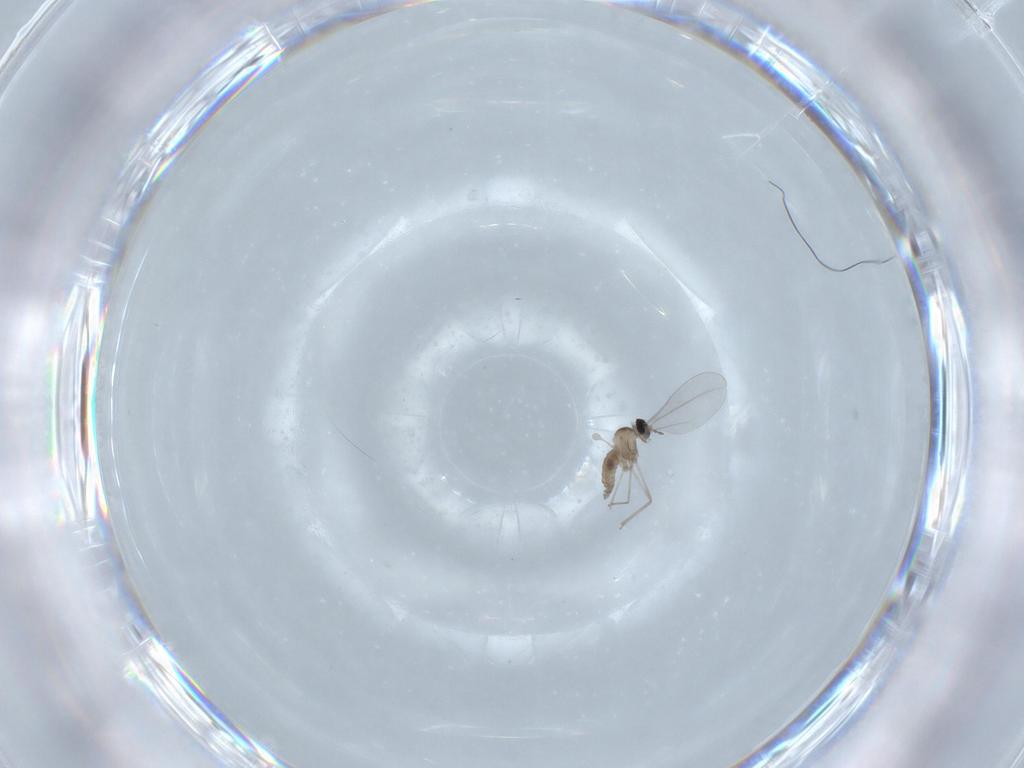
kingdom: Animalia
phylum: Arthropoda
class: Insecta
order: Diptera
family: Cecidomyiidae
